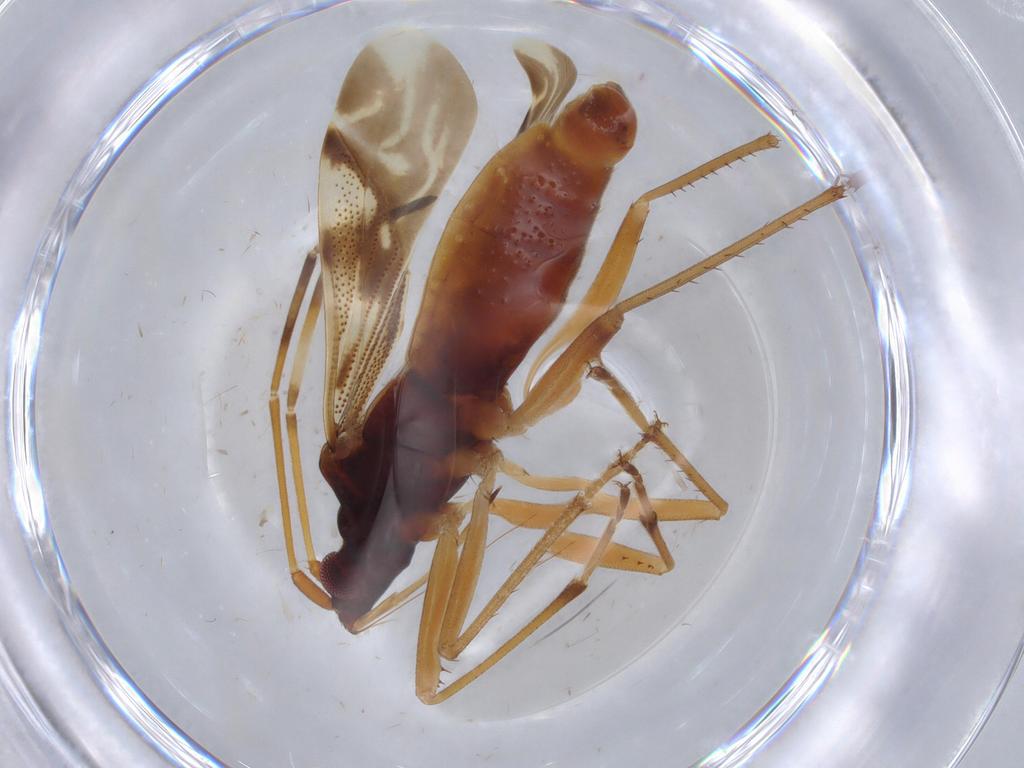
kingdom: Animalia
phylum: Arthropoda
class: Insecta
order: Hemiptera
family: Rhyparochromidae
